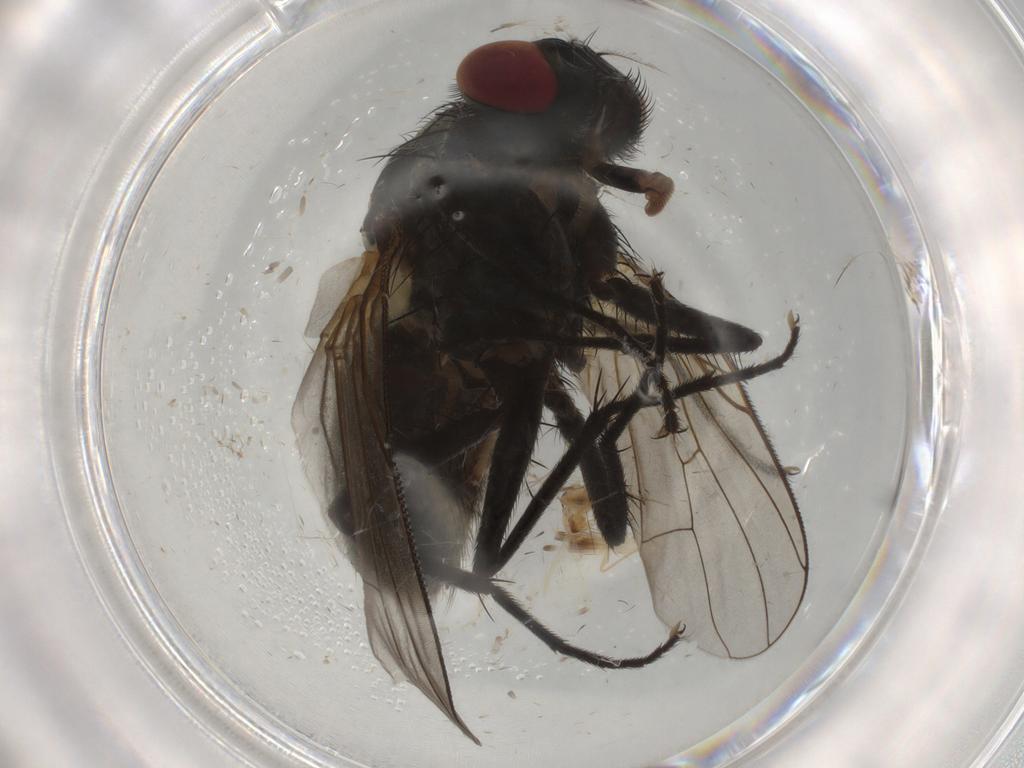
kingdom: Animalia
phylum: Arthropoda
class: Insecta
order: Diptera
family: Muscidae
